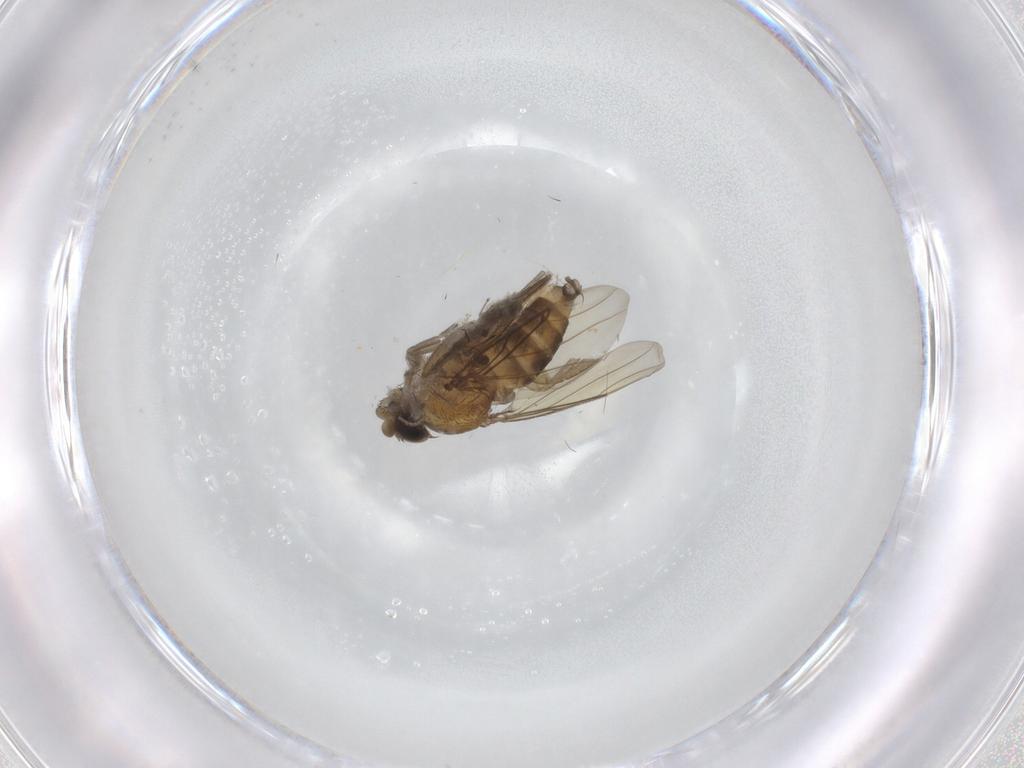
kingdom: Animalia
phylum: Arthropoda
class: Insecta
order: Diptera
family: Cecidomyiidae
